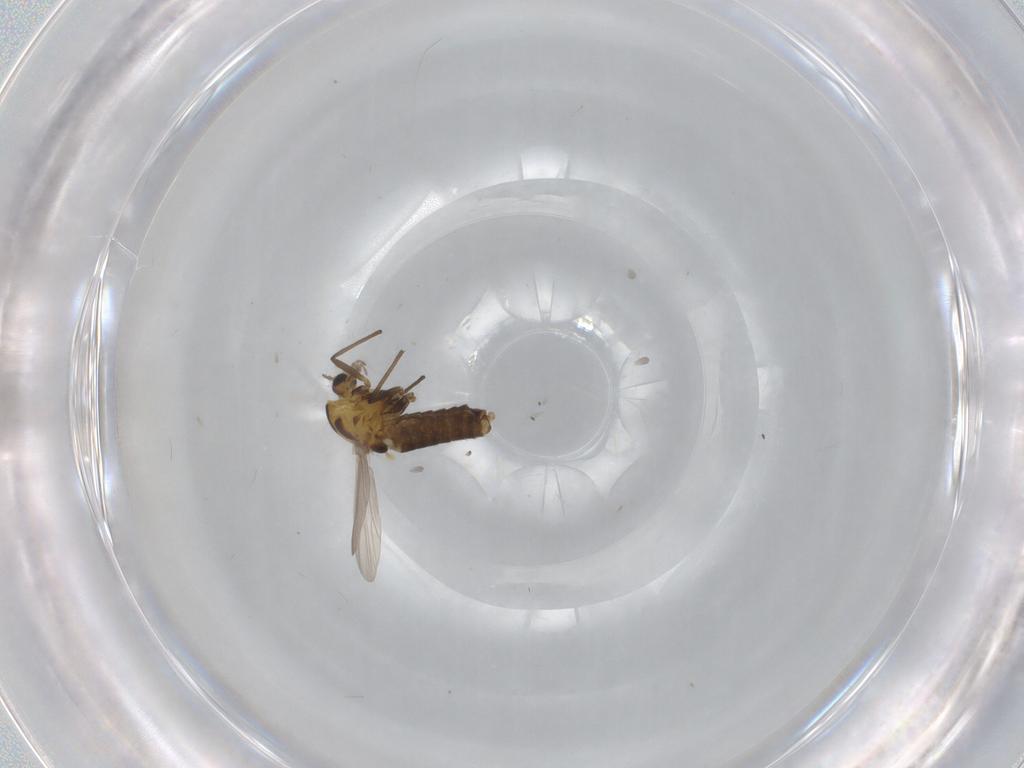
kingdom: Animalia
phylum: Arthropoda
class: Insecta
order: Diptera
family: Chironomidae
